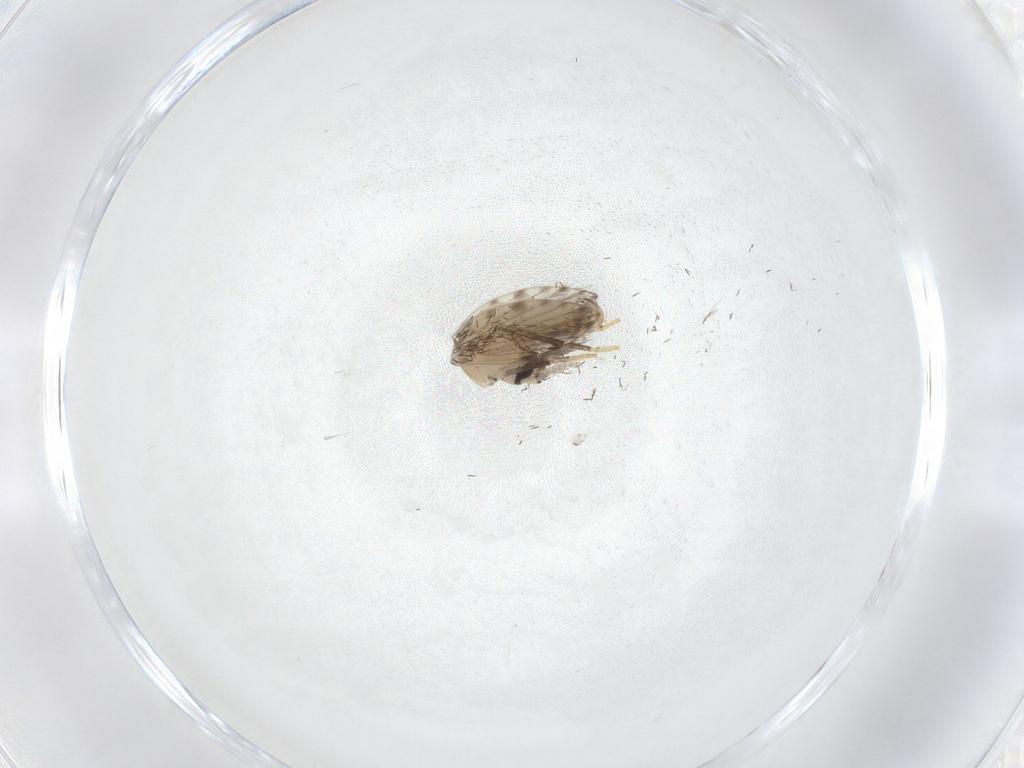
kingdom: Animalia
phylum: Arthropoda
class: Insecta
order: Diptera
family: Psychodidae
